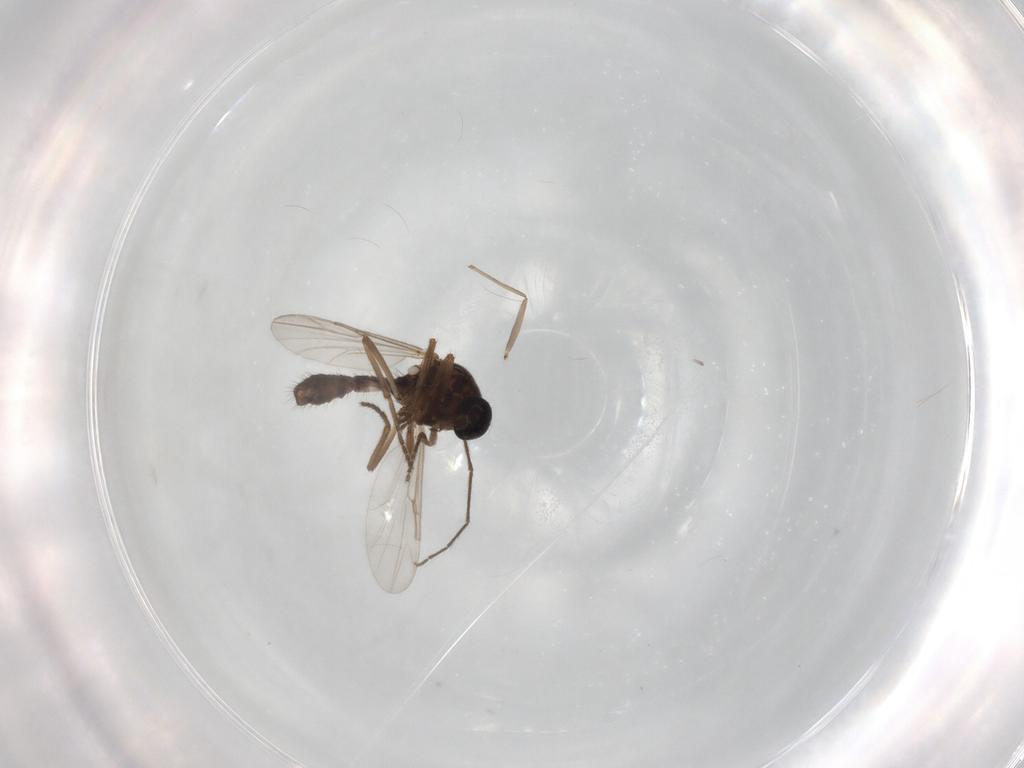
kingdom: Animalia
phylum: Arthropoda
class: Insecta
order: Diptera
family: Ceratopogonidae
